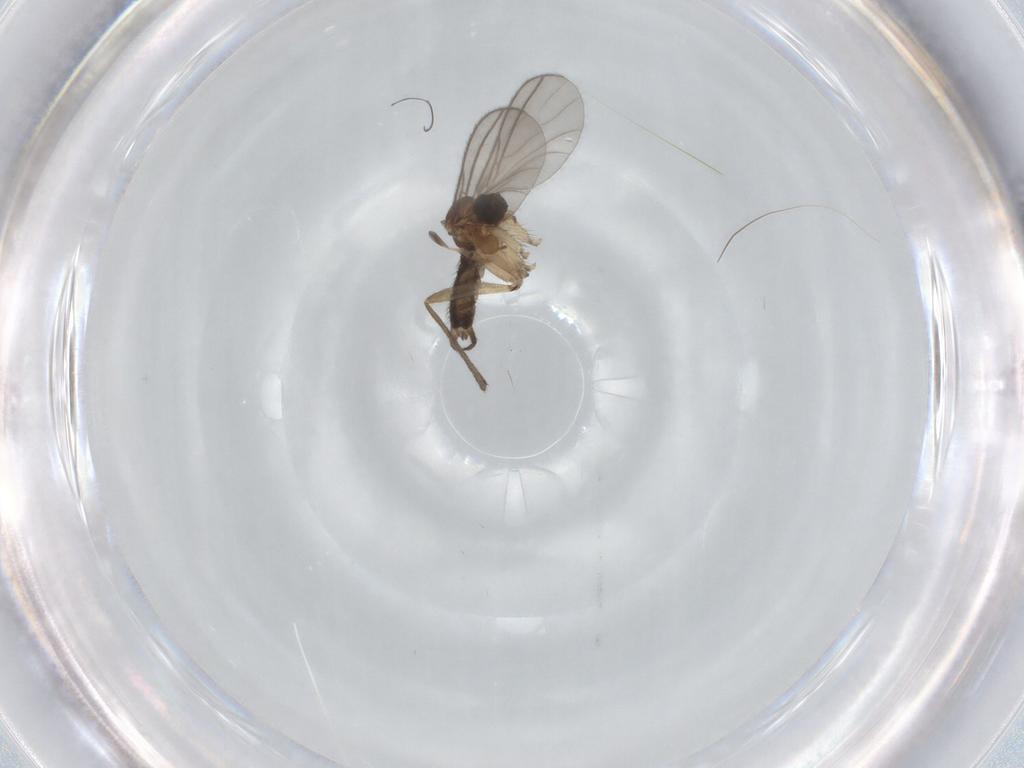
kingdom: Animalia
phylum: Arthropoda
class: Insecta
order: Diptera
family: Sciaridae
